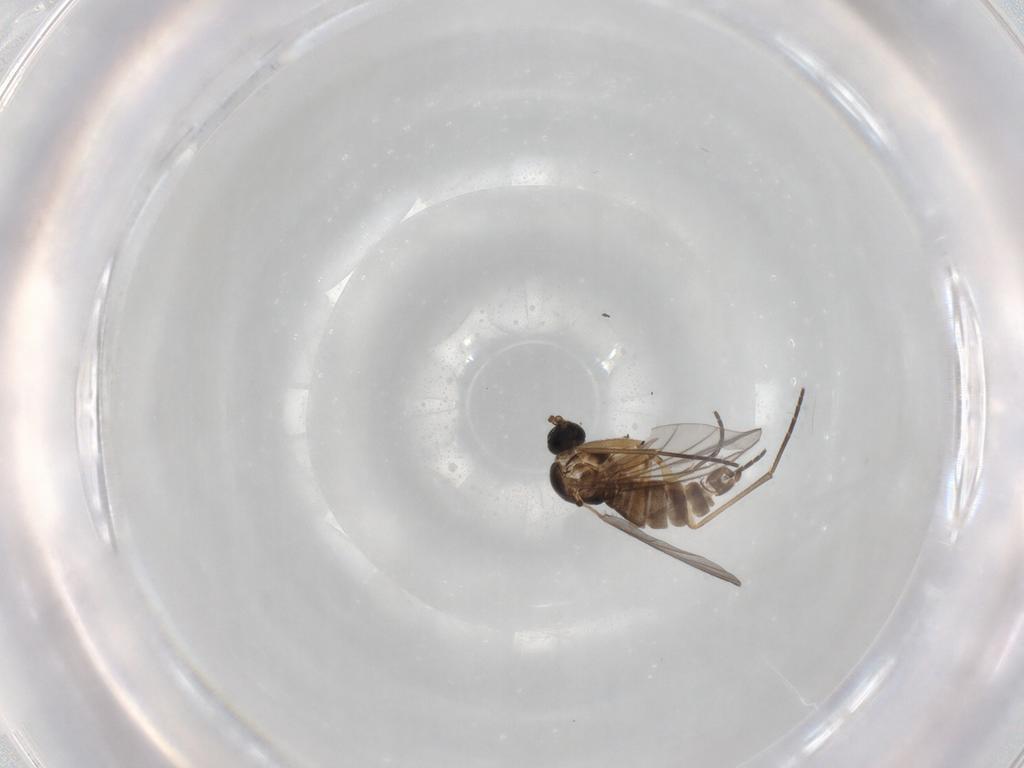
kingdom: Animalia
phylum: Arthropoda
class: Insecta
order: Diptera
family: Sciaridae
